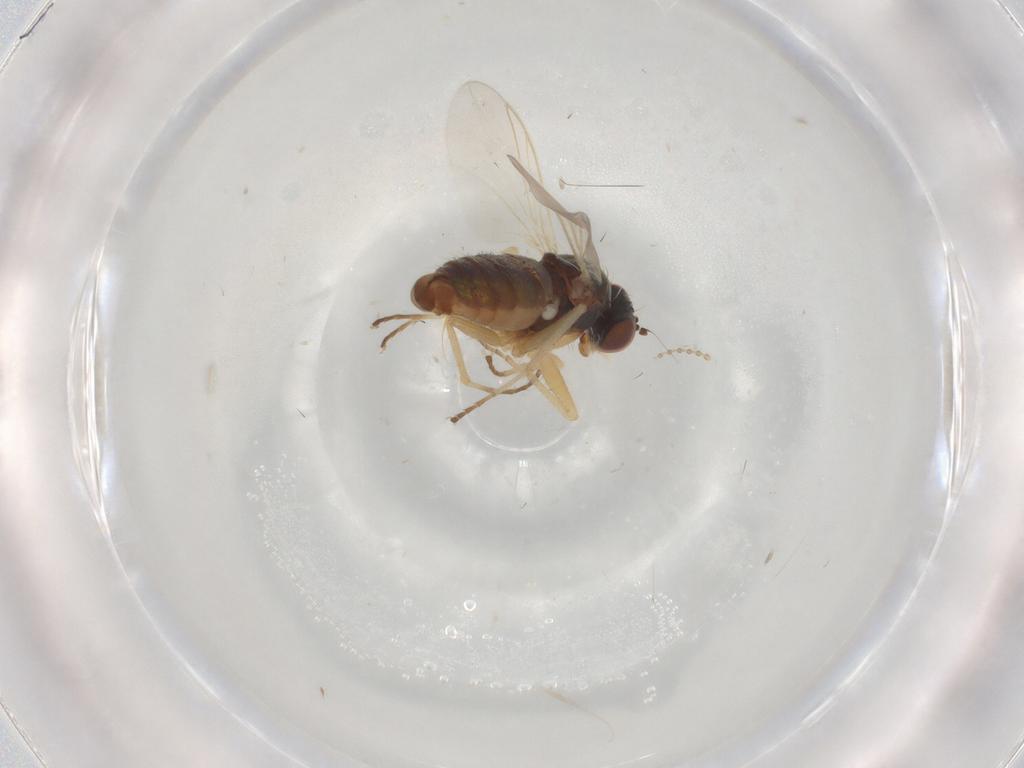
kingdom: Animalia
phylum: Arthropoda
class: Insecta
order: Diptera
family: Dolichopodidae
